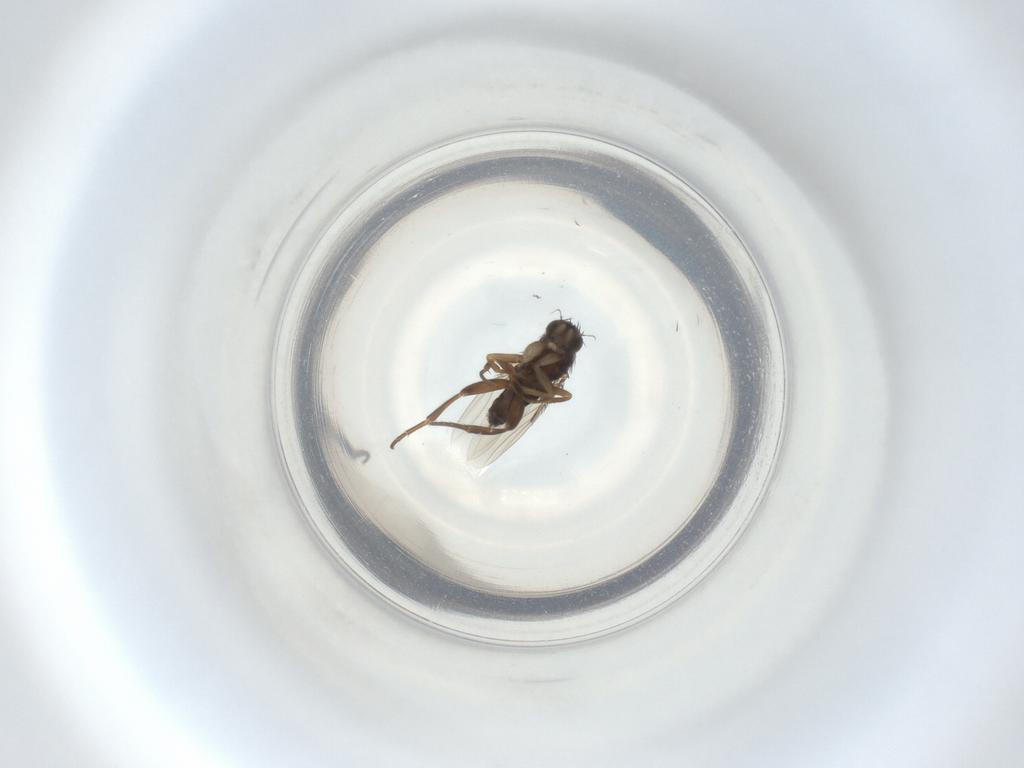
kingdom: Animalia
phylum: Arthropoda
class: Insecta
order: Diptera
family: Phoridae
